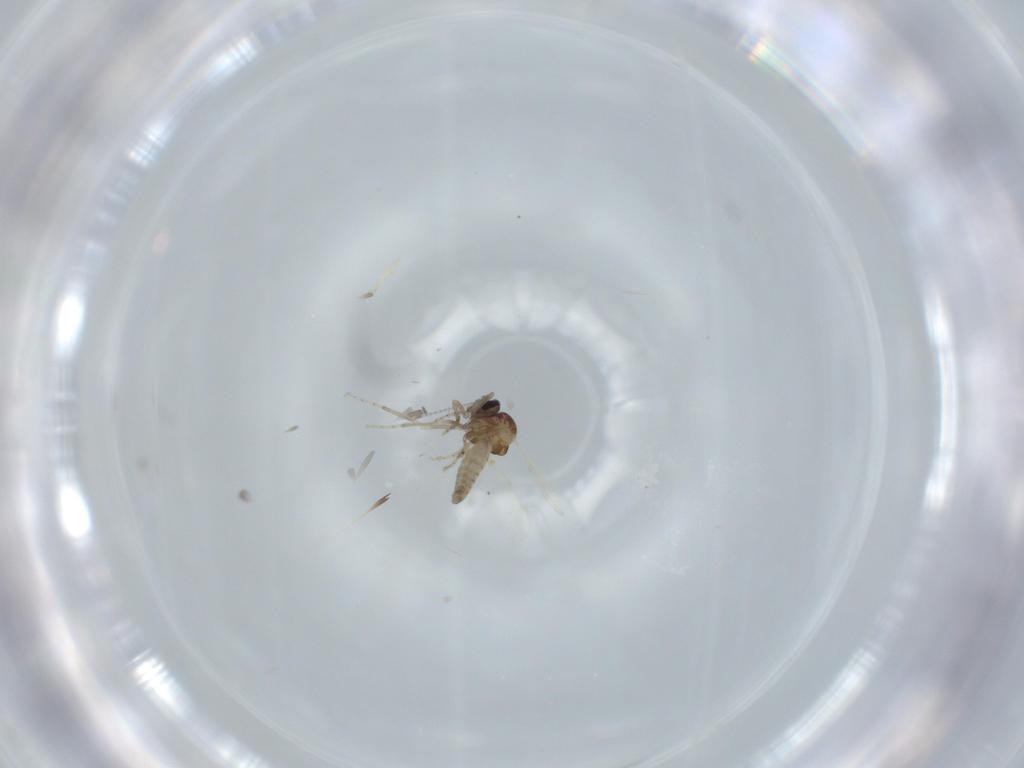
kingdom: Animalia
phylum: Arthropoda
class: Insecta
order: Diptera
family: Ceratopogonidae
